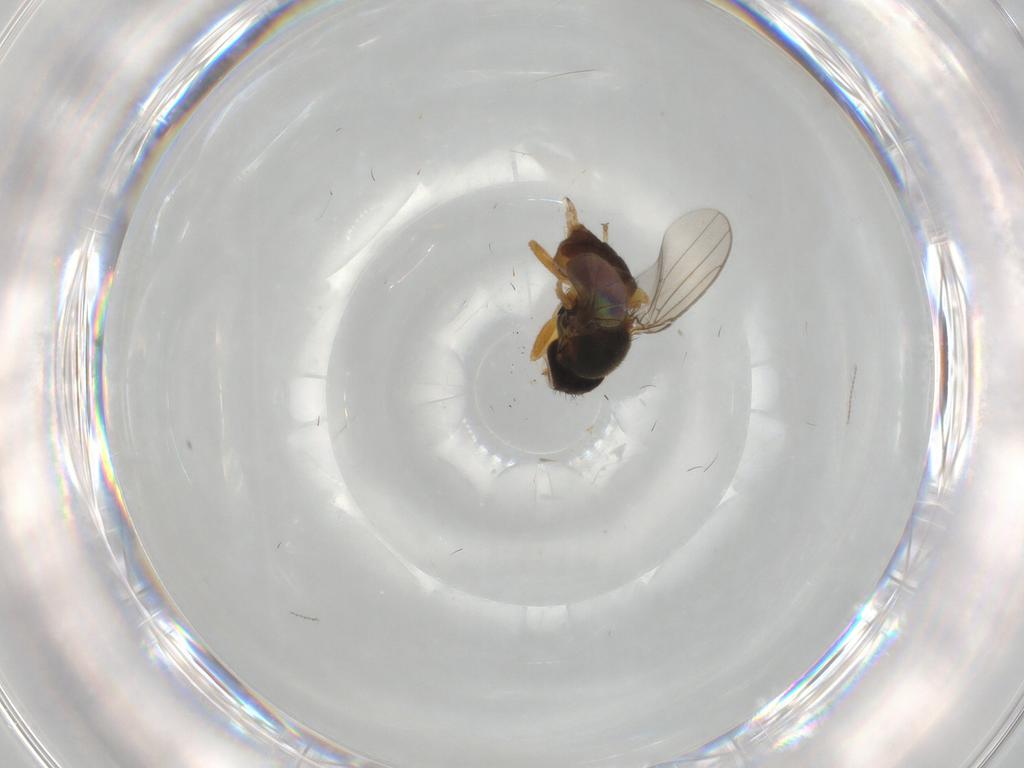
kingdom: Animalia
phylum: Arthropoda
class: Insecta
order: Diptera
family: Chloropidae
